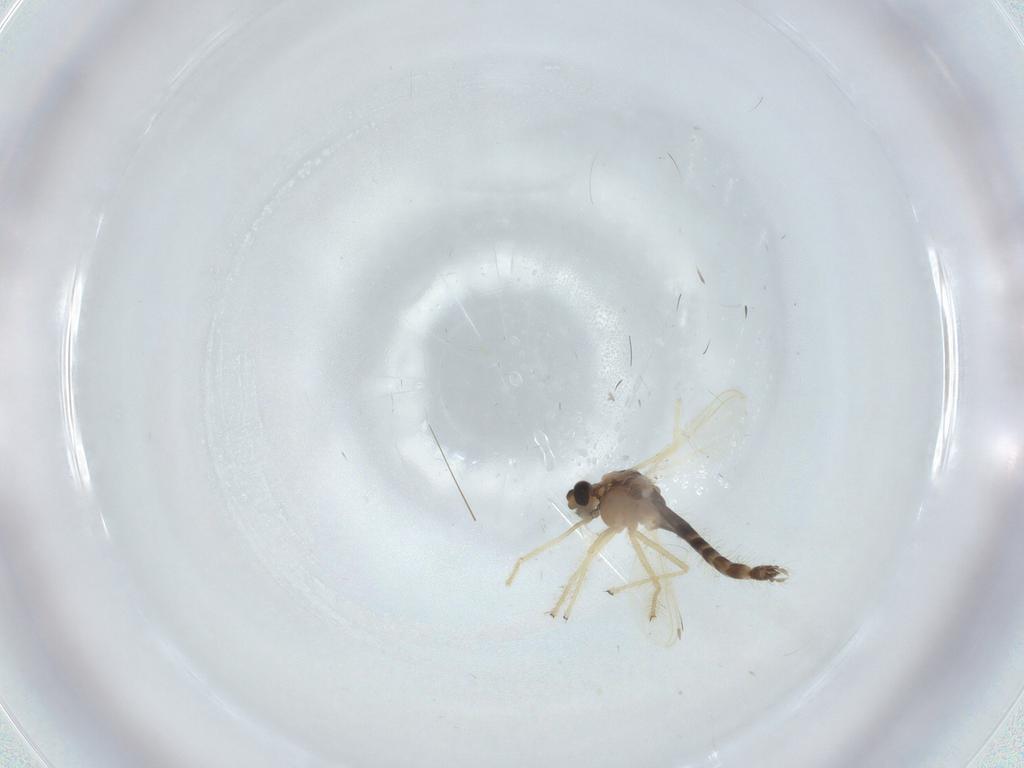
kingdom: Animalia
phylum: Arthropoda
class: Insecta
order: Diptera
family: Chironomidae
